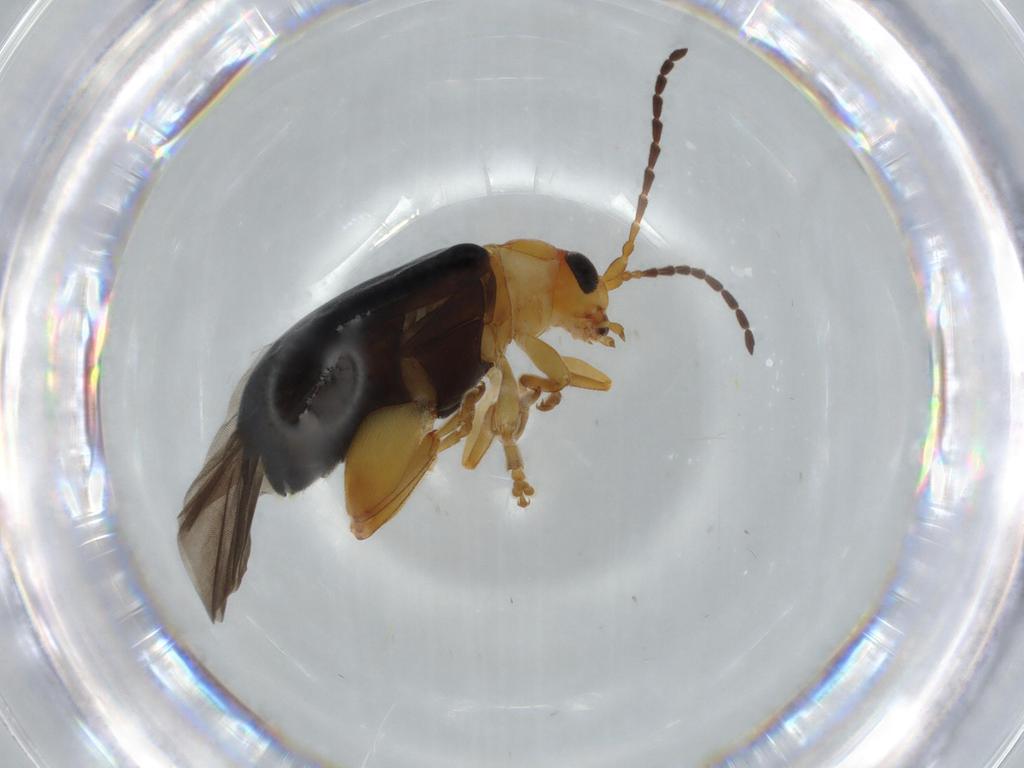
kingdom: Animalia
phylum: Arthropoda
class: Insecta
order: Coleoptera
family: Chrysomelidae
